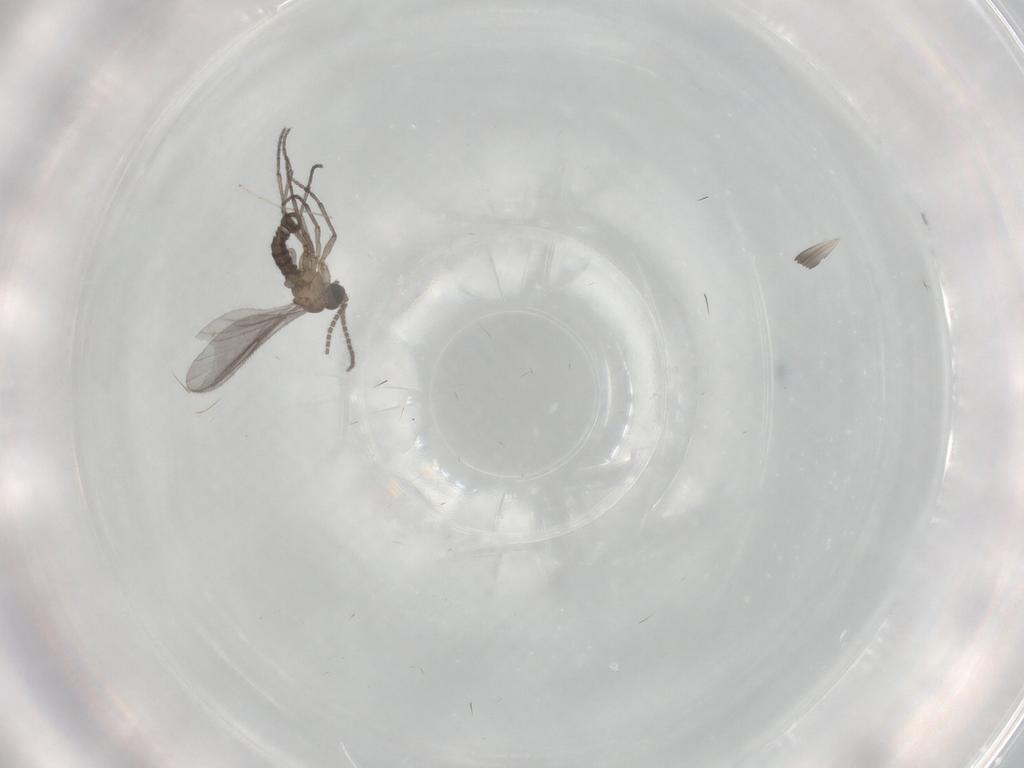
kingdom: Animalia
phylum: Arthropoda
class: Insecta
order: Diptera
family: Sciaridae
